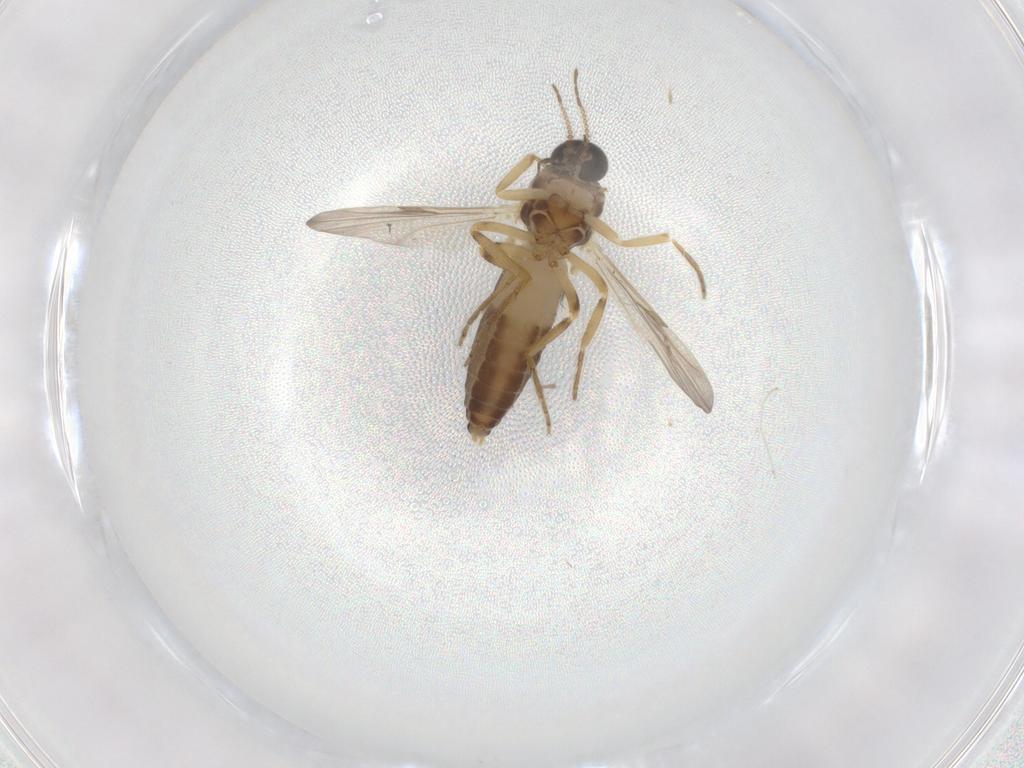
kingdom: Animalia
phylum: Arthropoda
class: Insecta
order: Diptera
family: Ceratopogonidae
